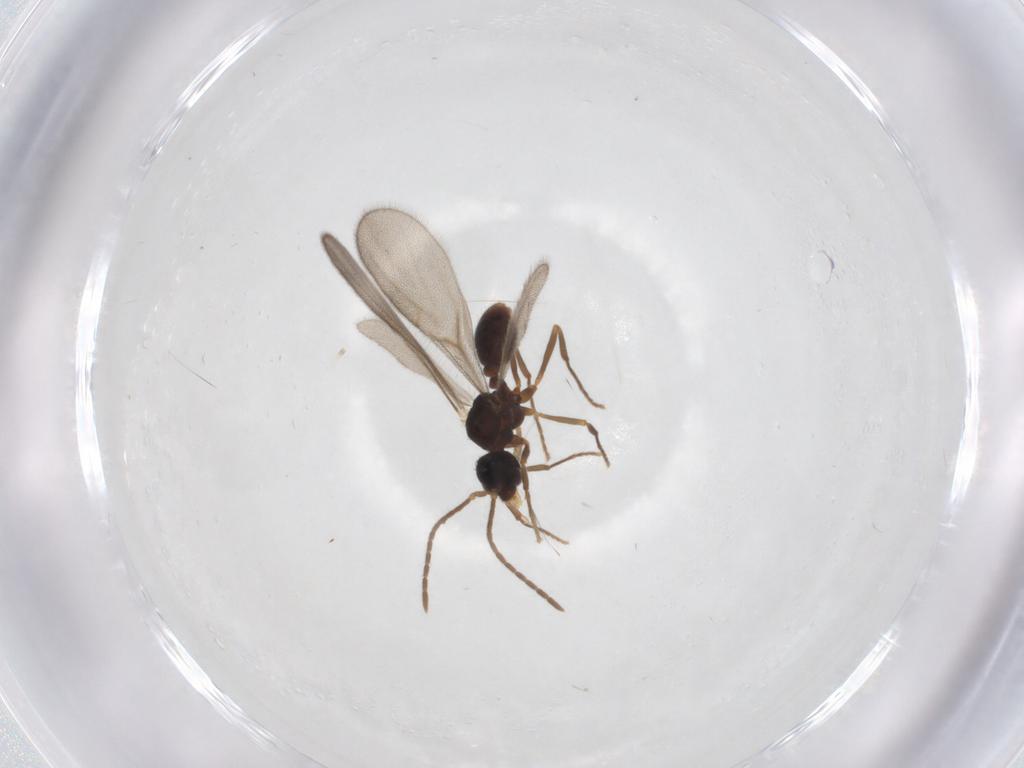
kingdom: Animalia
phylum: Arthropoda
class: Insecta
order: Hymenoptera
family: Formicidae
